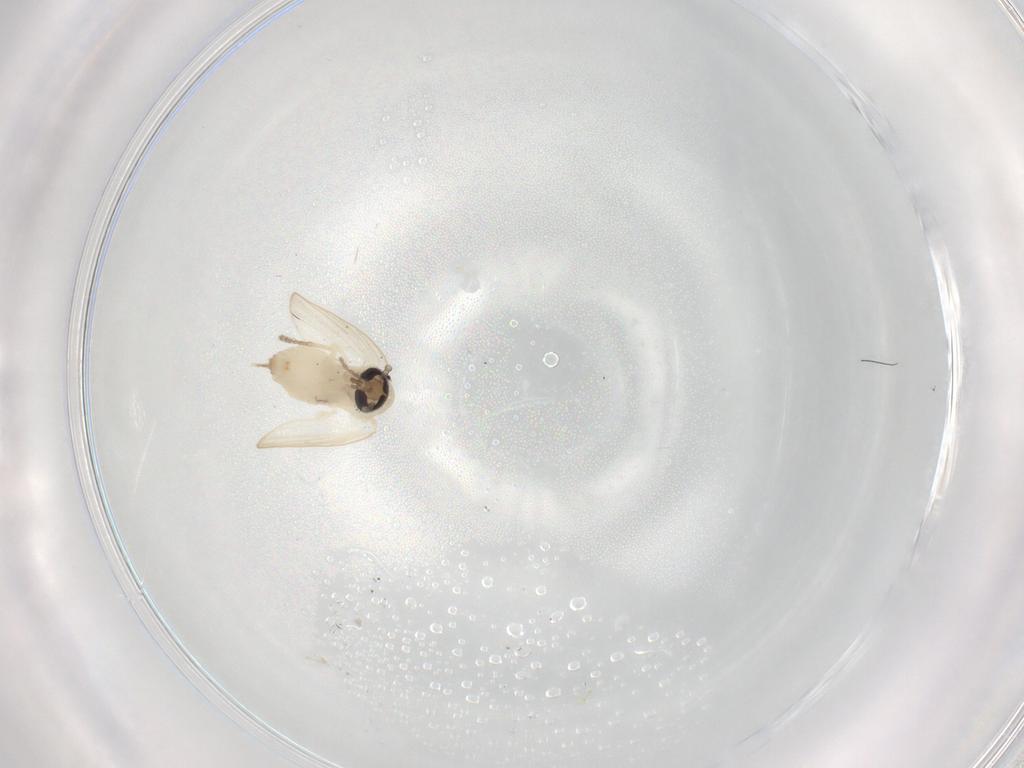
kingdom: Animalia
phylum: Arthropoda
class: Insecta
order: Diptera
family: Psychodidae
